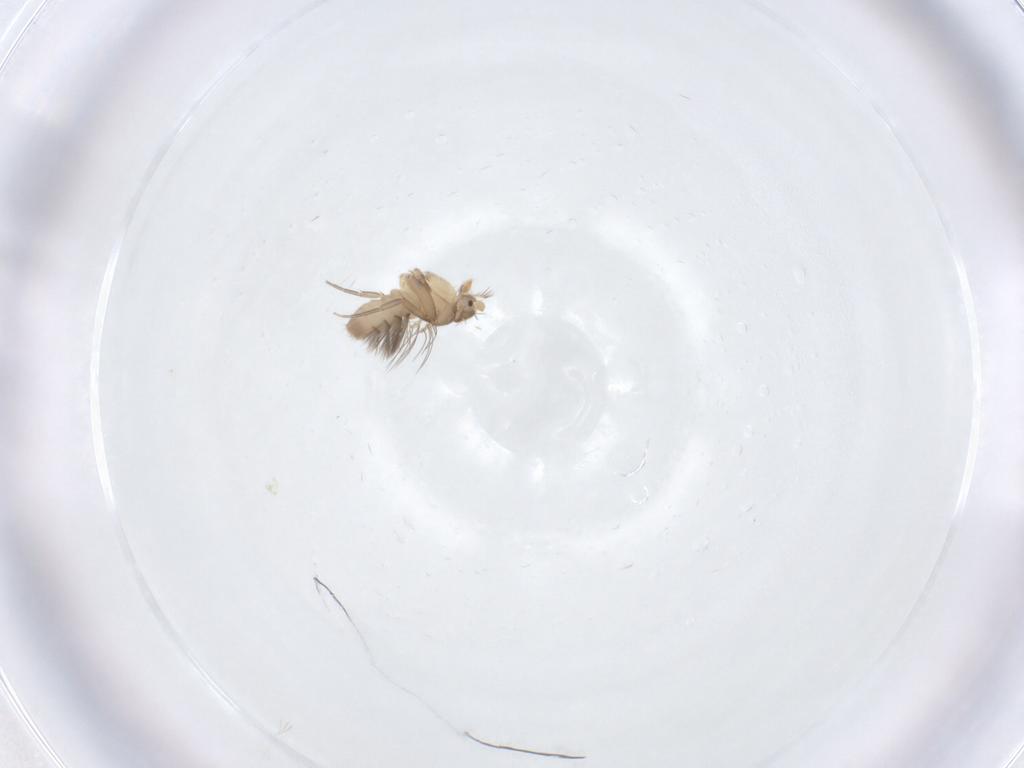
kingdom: Animalia
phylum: Arthropoda
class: Insecta
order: Diptera
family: Phoridae
